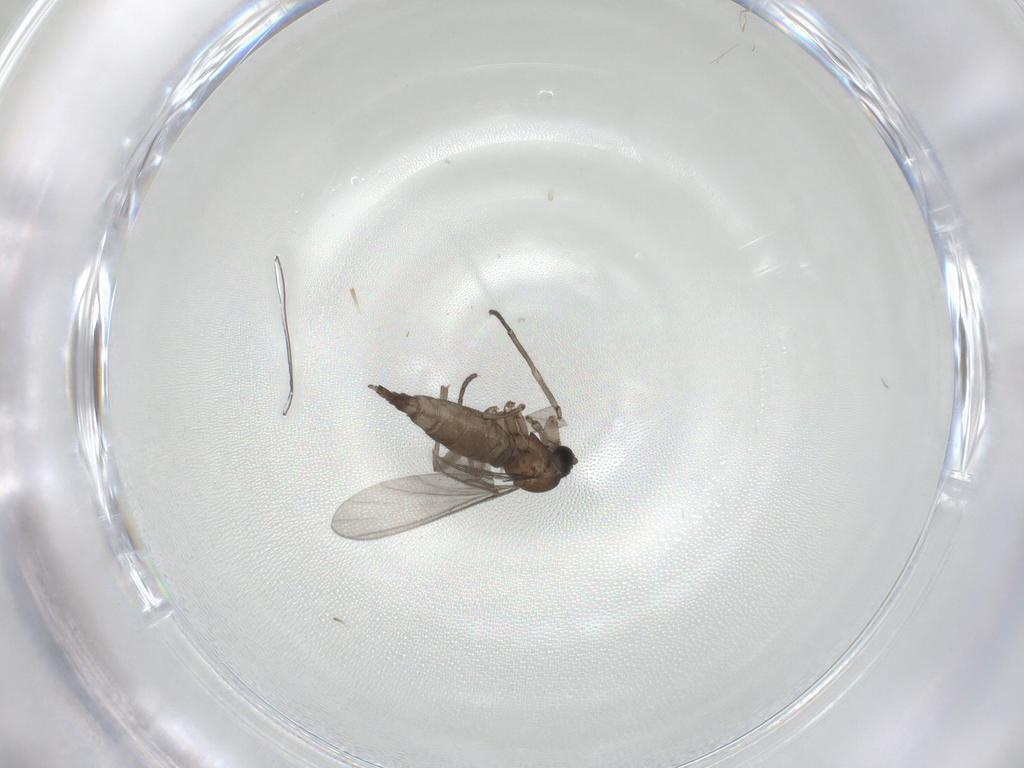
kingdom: Animalia
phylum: Arthropoda
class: Insecta
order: Diptera
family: Sciaridae
